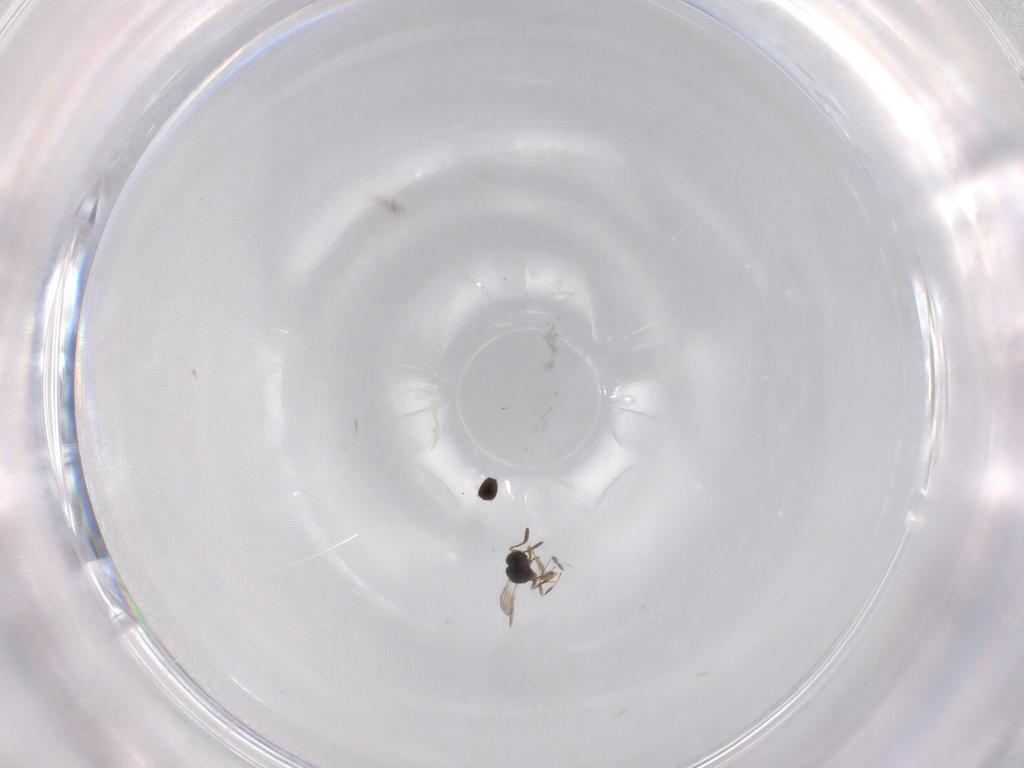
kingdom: Animalia
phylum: Arthropoda
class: Insecta
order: Hymenoptera
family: Scelionidae
